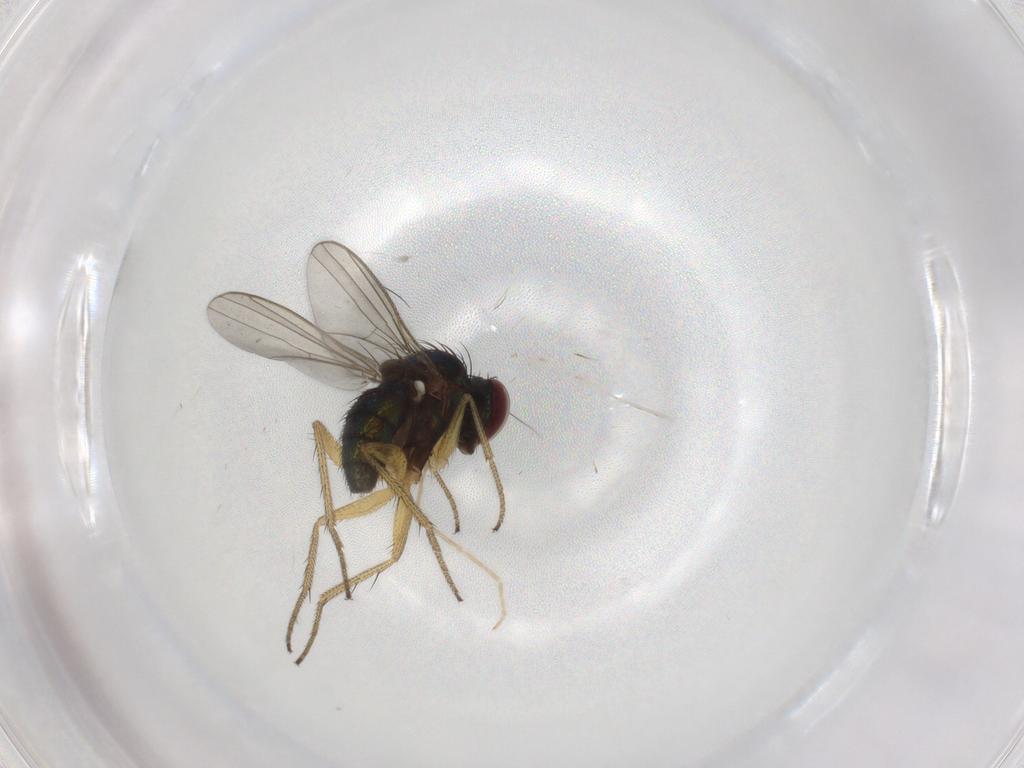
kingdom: Animalia
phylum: Arthropoda
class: Insecta
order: Diptera
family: Cecidomyiidae
